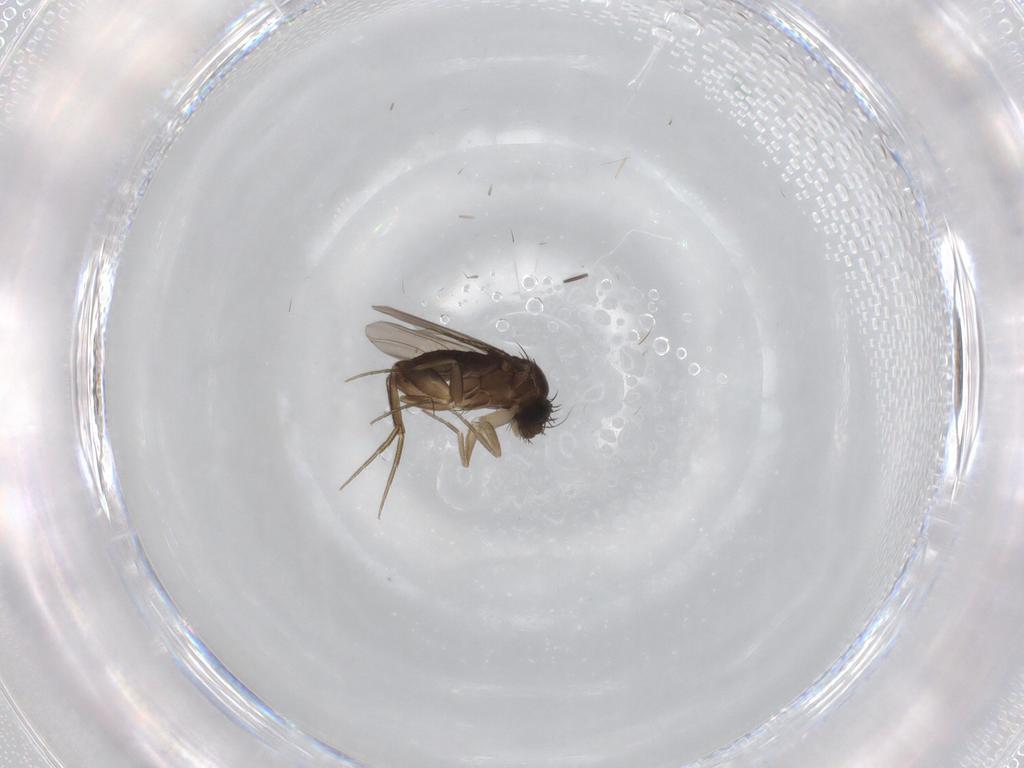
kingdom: Animalia
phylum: Arthropoda
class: Insecta
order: Diptera
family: Phoridae
